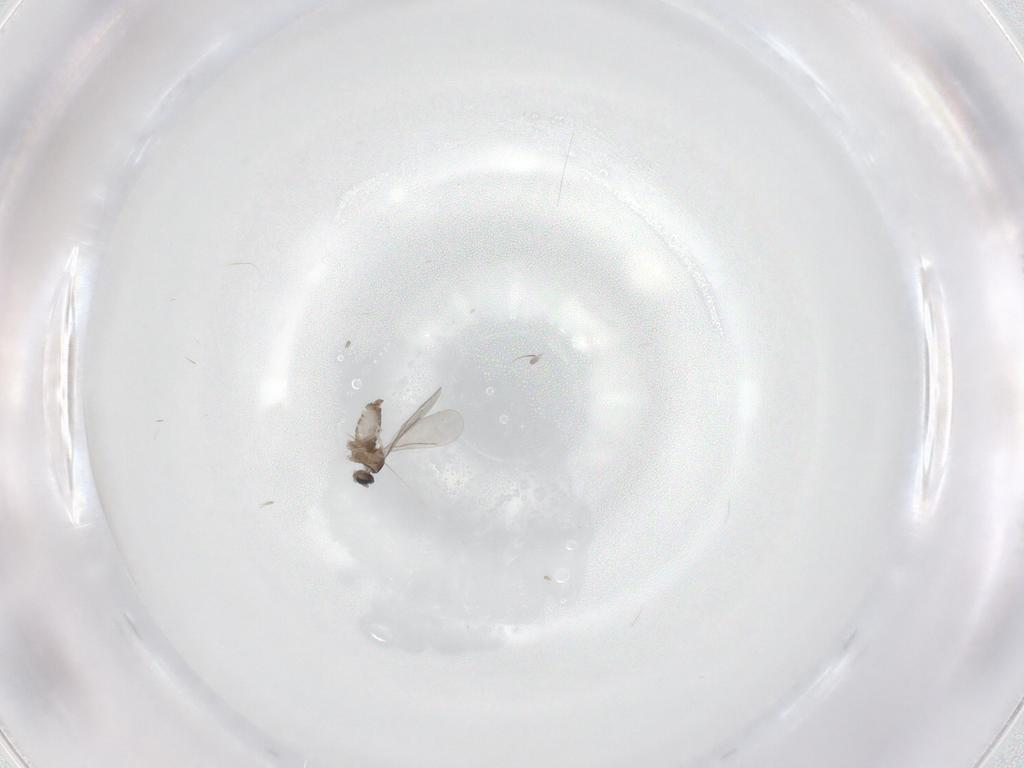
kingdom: Animalia
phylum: Arthropoda
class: Insecta
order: Diptera
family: Cecidomyiidae
